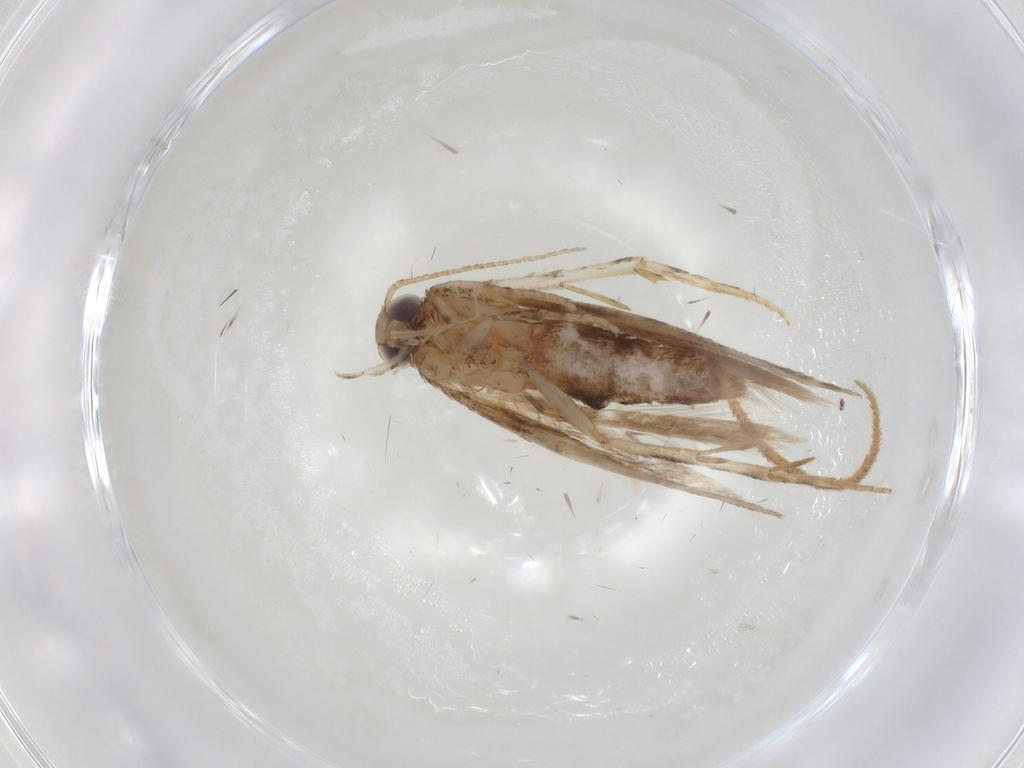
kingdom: Animalia
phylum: Arthropoda
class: Insecta
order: Lepidoptera
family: Gelechiidae
